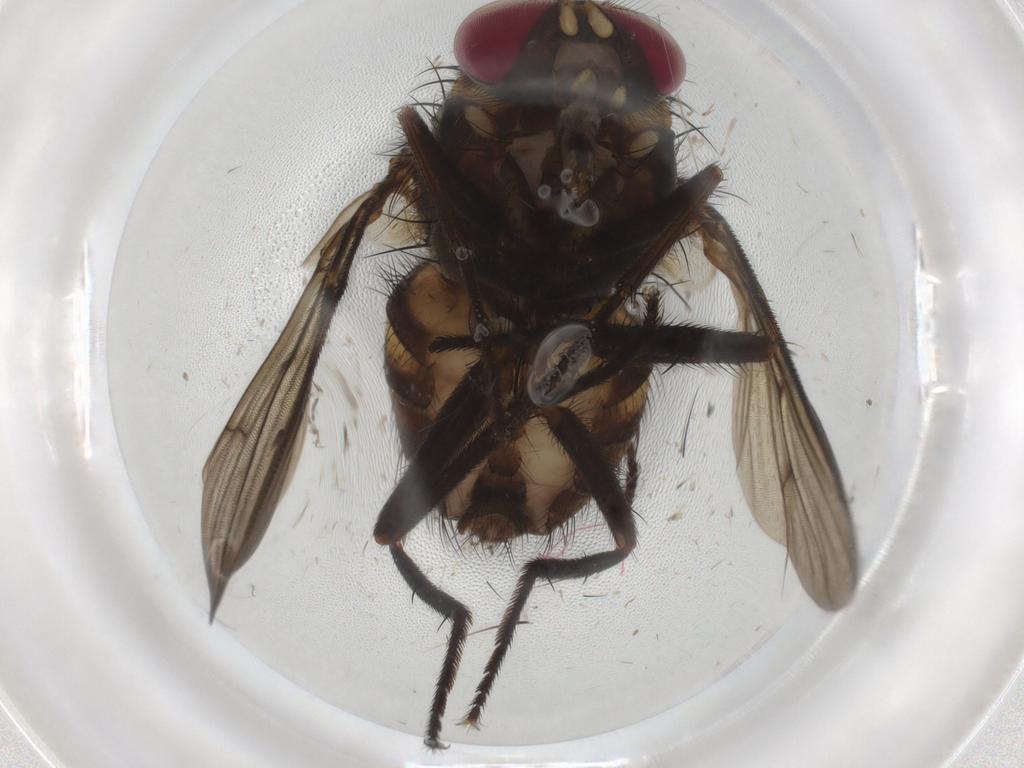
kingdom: Animalia
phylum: Arthropoda
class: Insecta
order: Diptera
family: Muscidae
